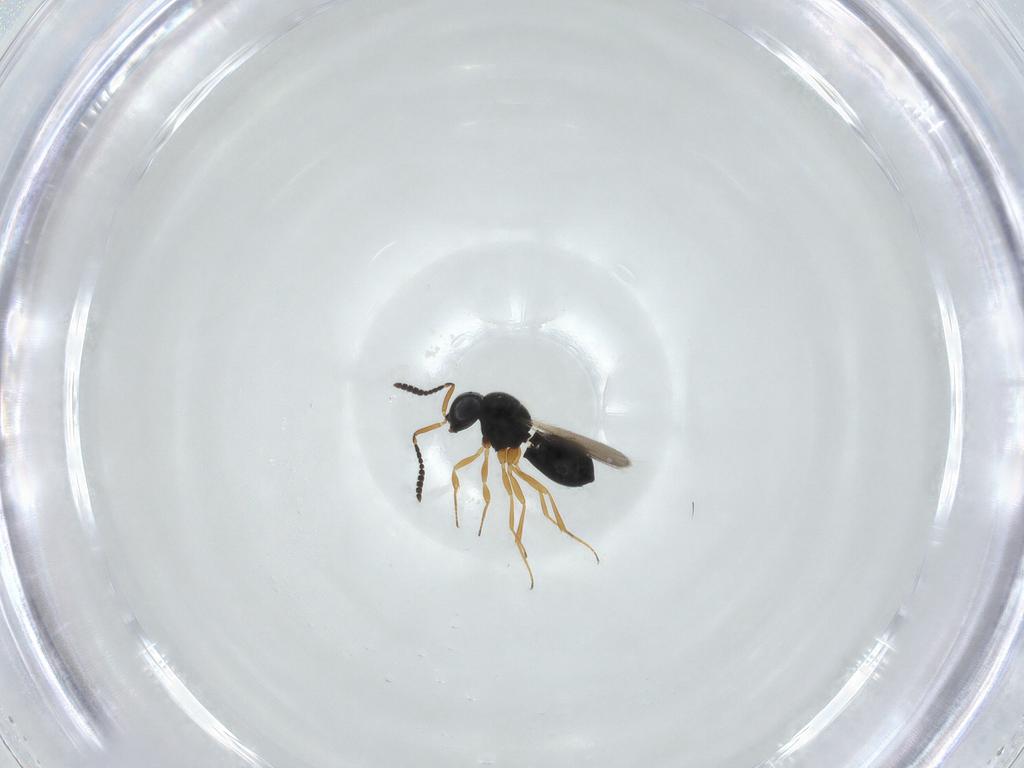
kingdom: Animalia
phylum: Arthropoda
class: Insecta
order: Hymenoptera
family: Scelionidae
